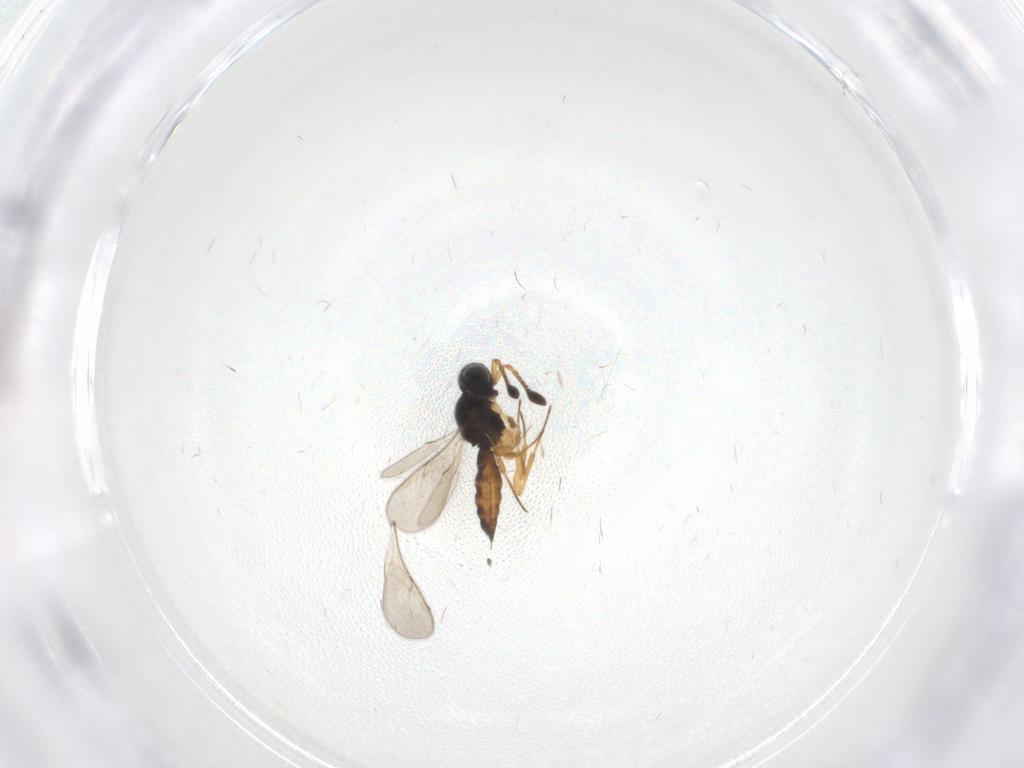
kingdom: Animalia
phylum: Arthropoda
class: Insecta
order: Hymenoptera
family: Scelionidae
